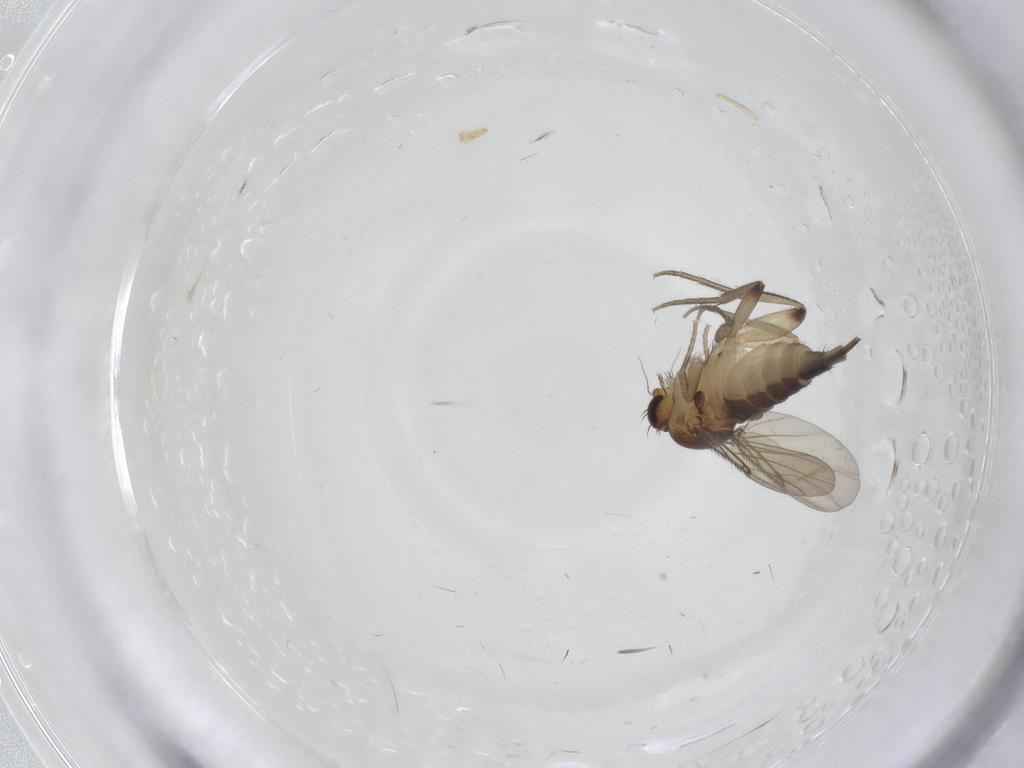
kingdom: Animalia
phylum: Arthropoda
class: Insecta
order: Diptera
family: Phoridae
